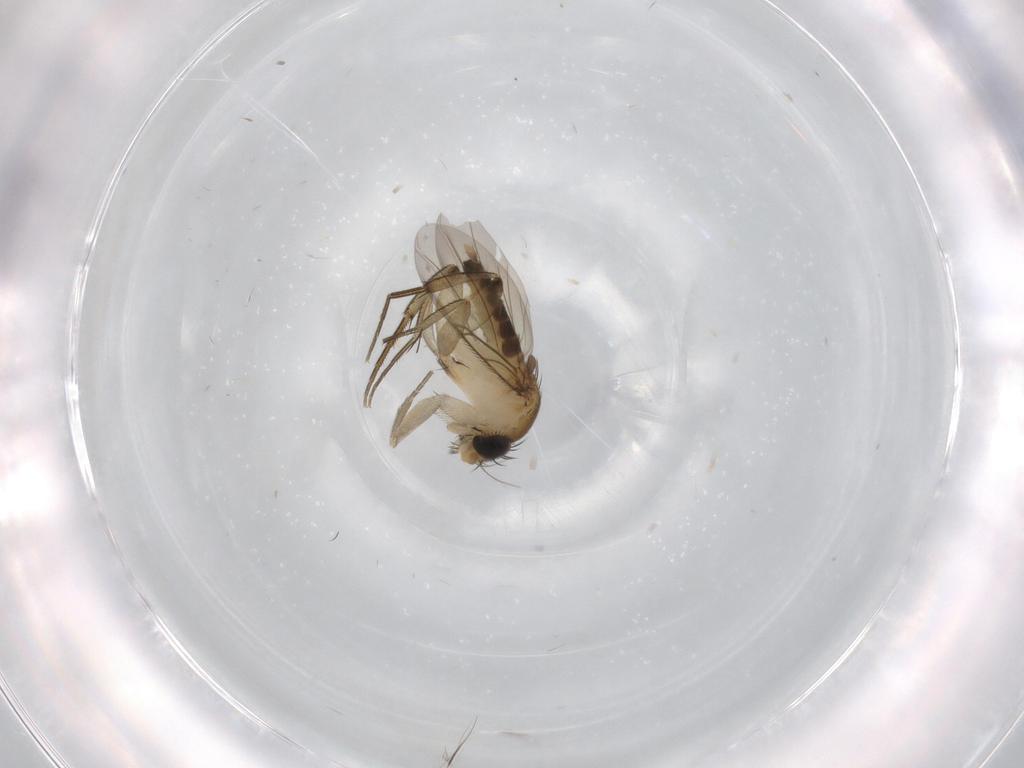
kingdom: Animalia
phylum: Arthropoda
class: Insecta
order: Diptera
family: Phoridae
